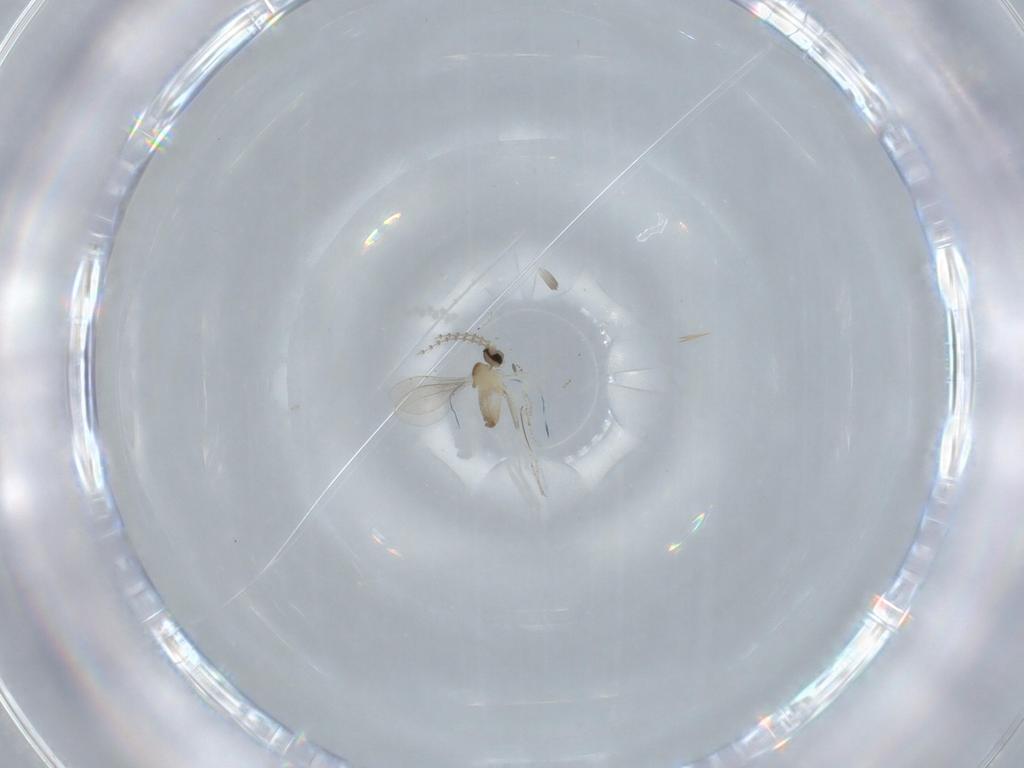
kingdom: Animalia
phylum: Arthropoda
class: Insecta
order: Diptera
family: Cecidomyiidae
